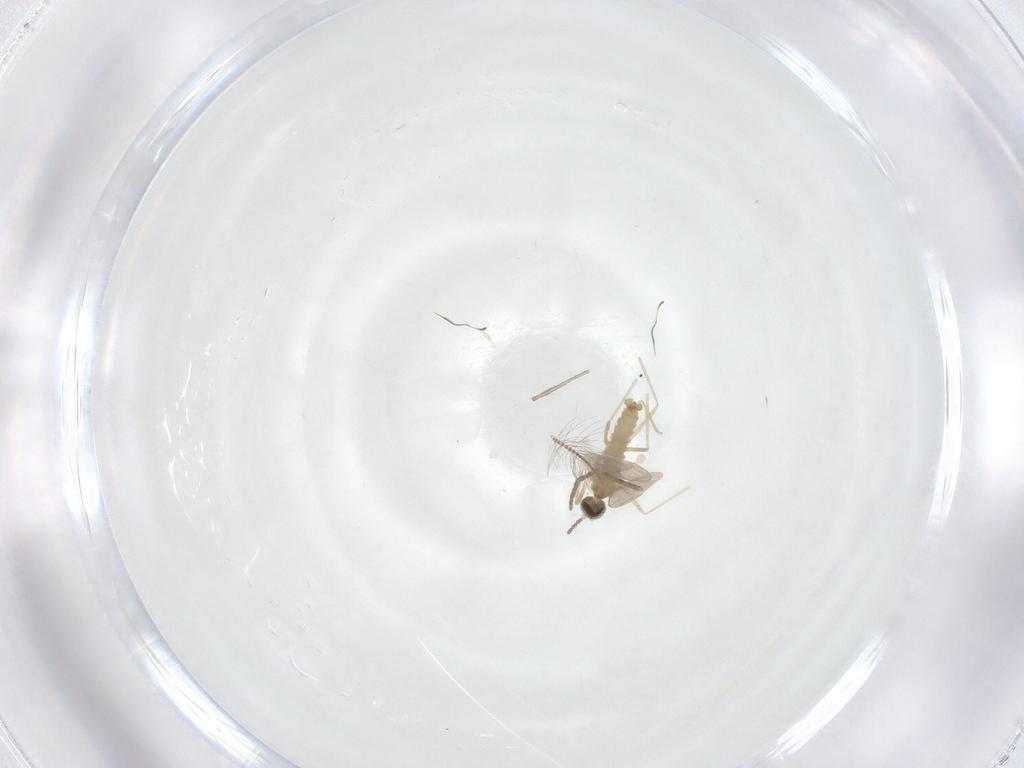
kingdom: Animalia
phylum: Arthropoda
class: Insecta
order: Diptera
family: Cecidomyiidae
